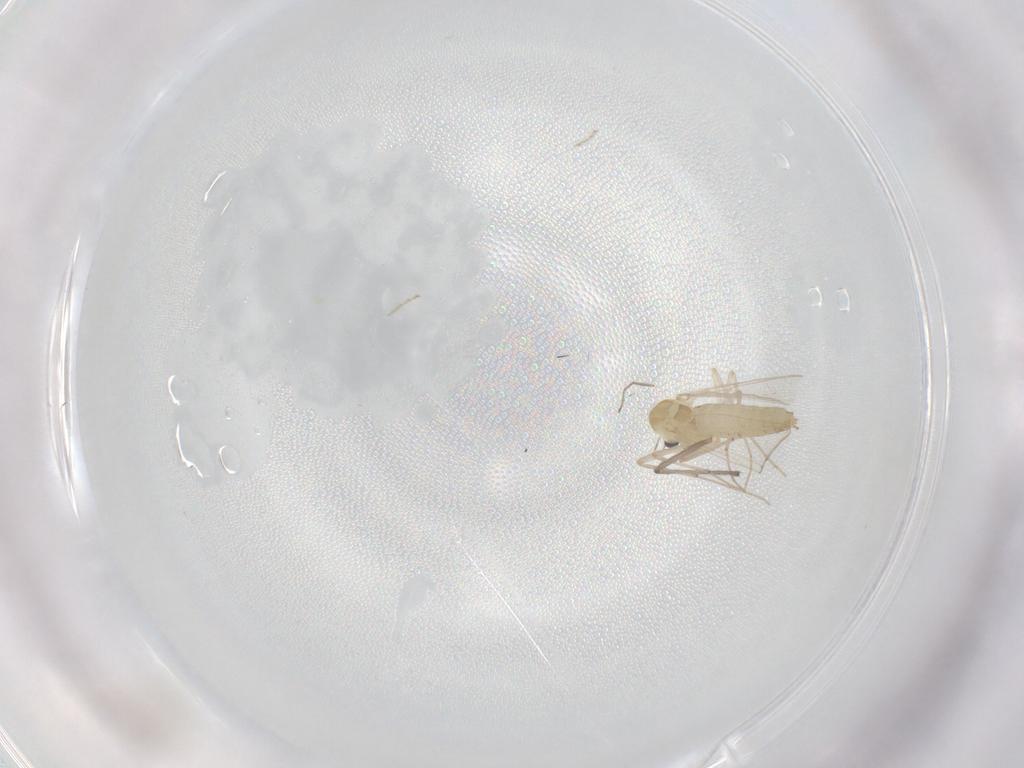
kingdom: Animalia
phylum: Arthropoda
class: Insecta
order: Diptera
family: Chironomidae
